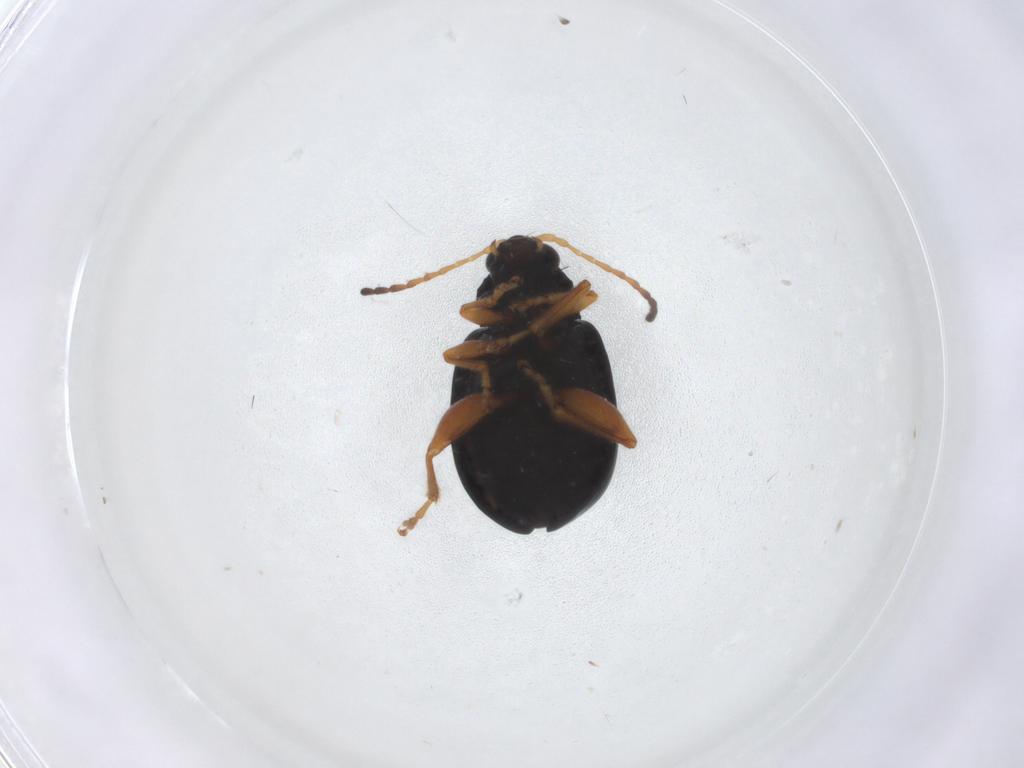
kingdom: Animalia
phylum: Arthropoda
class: Insecta
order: Coleoptera
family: Chrysomelidae
